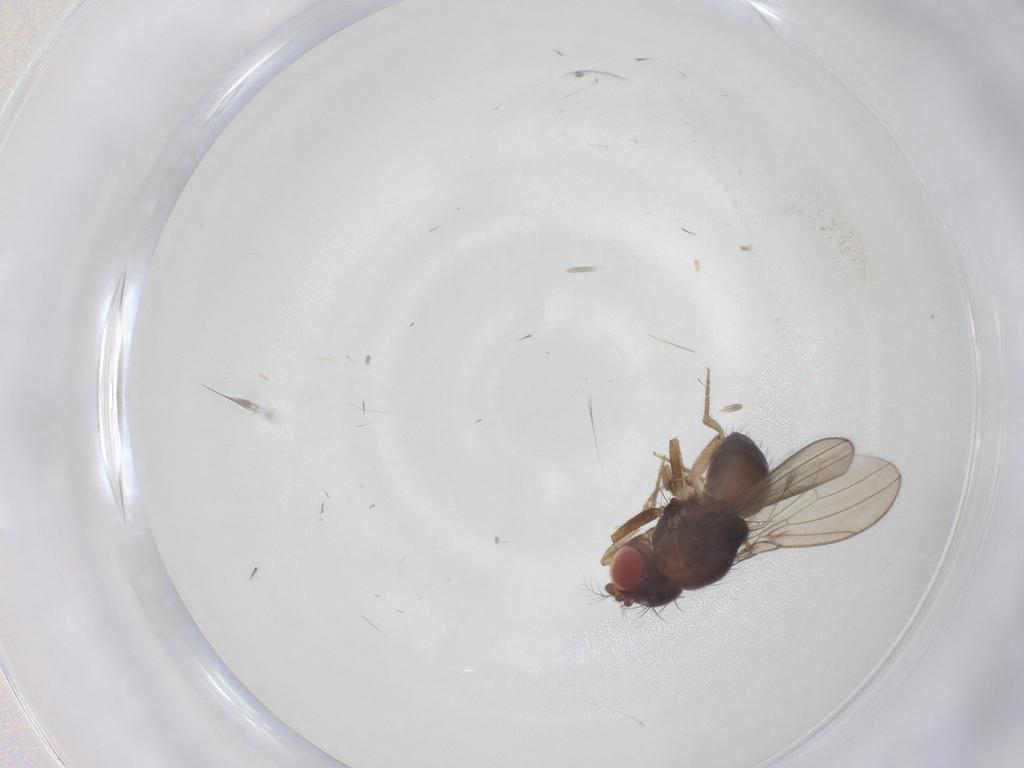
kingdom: Animalia
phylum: Arthropoda
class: Insecta
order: Diptera
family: Drosophilidae
